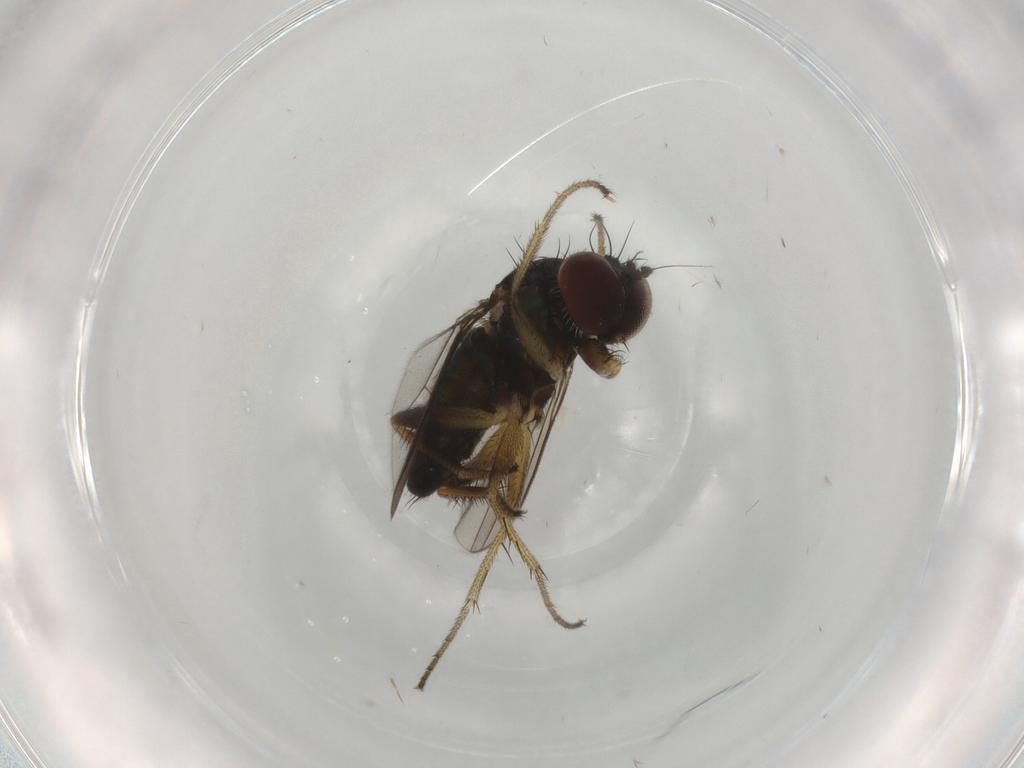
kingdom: Animalia
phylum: Arthropoda
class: Insecta
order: Diptera
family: Dolichopodidae
